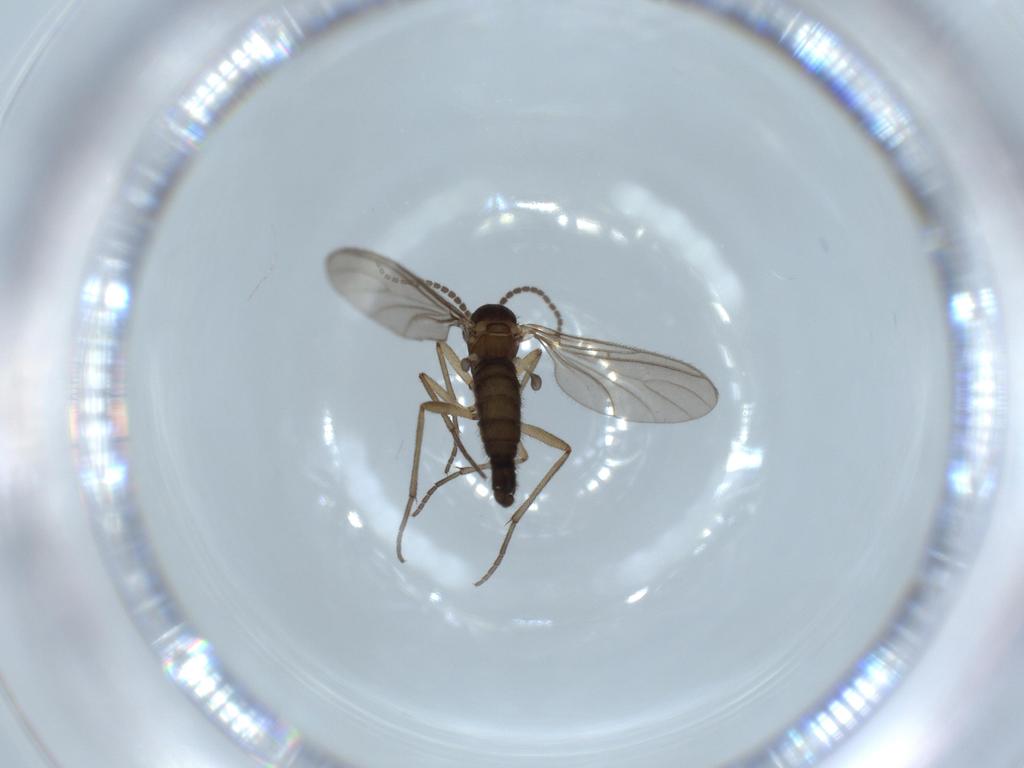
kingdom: Animalia
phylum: Arthropoda
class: Insecta
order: Diptera
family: Sciaridae
